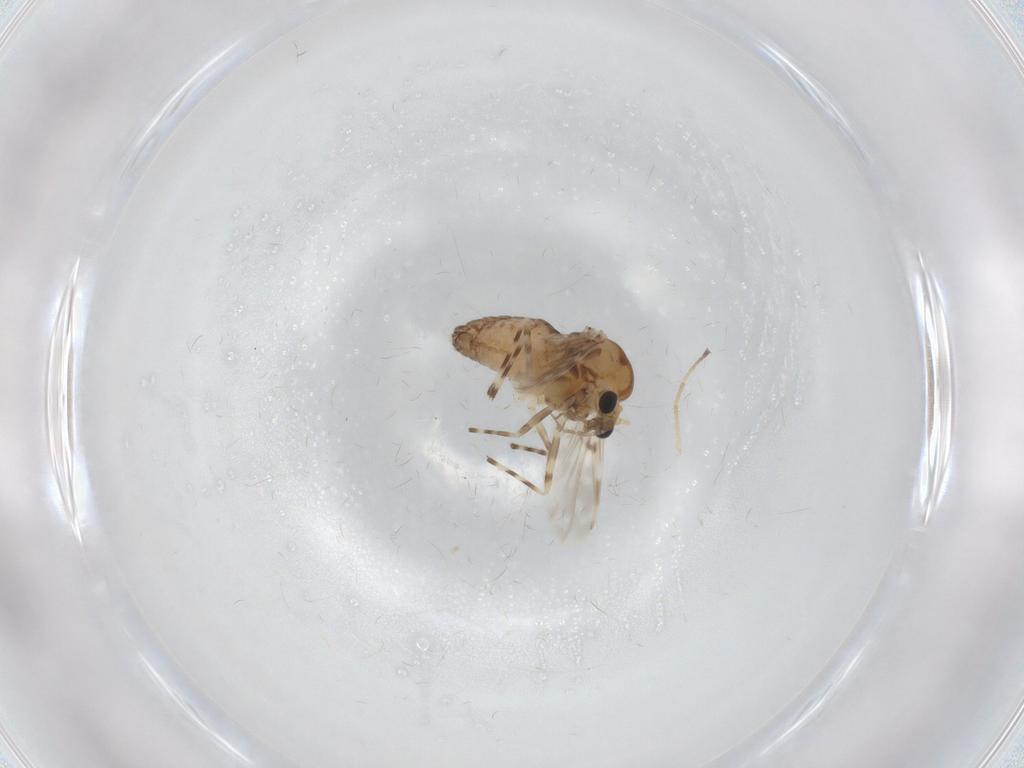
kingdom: Animalia
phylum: Arthropoda
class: Insecta
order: Diptera
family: Chironomidae
